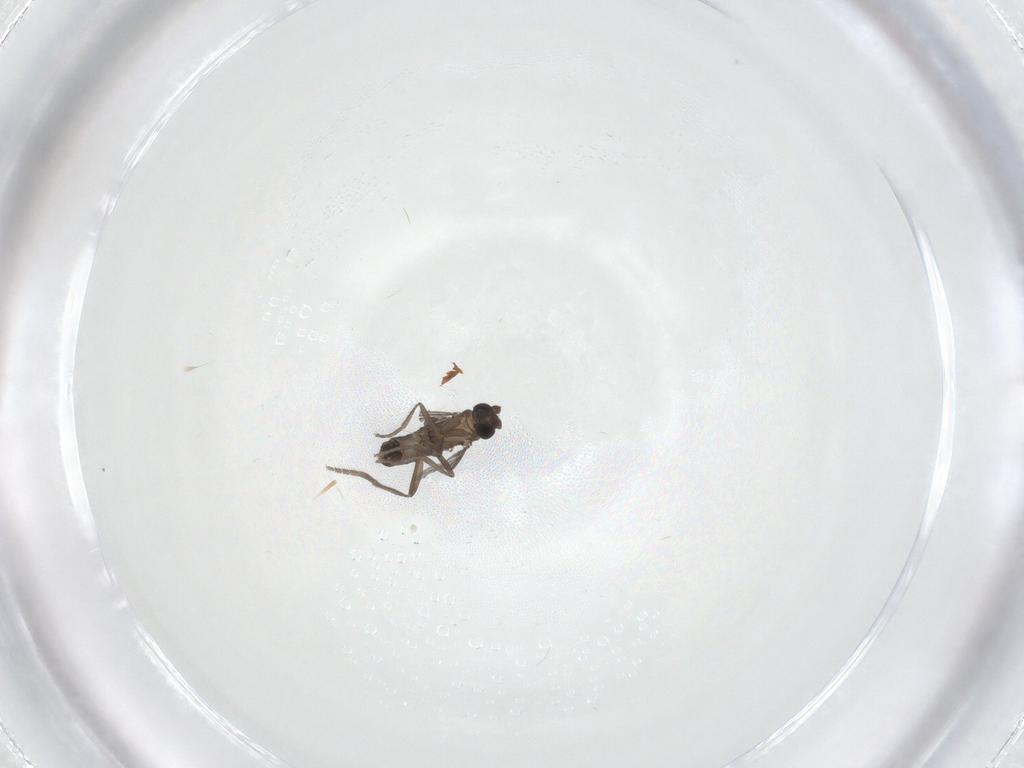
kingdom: Animalia
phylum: Arthropoda
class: Insecta
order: Diptera
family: Phoridae
